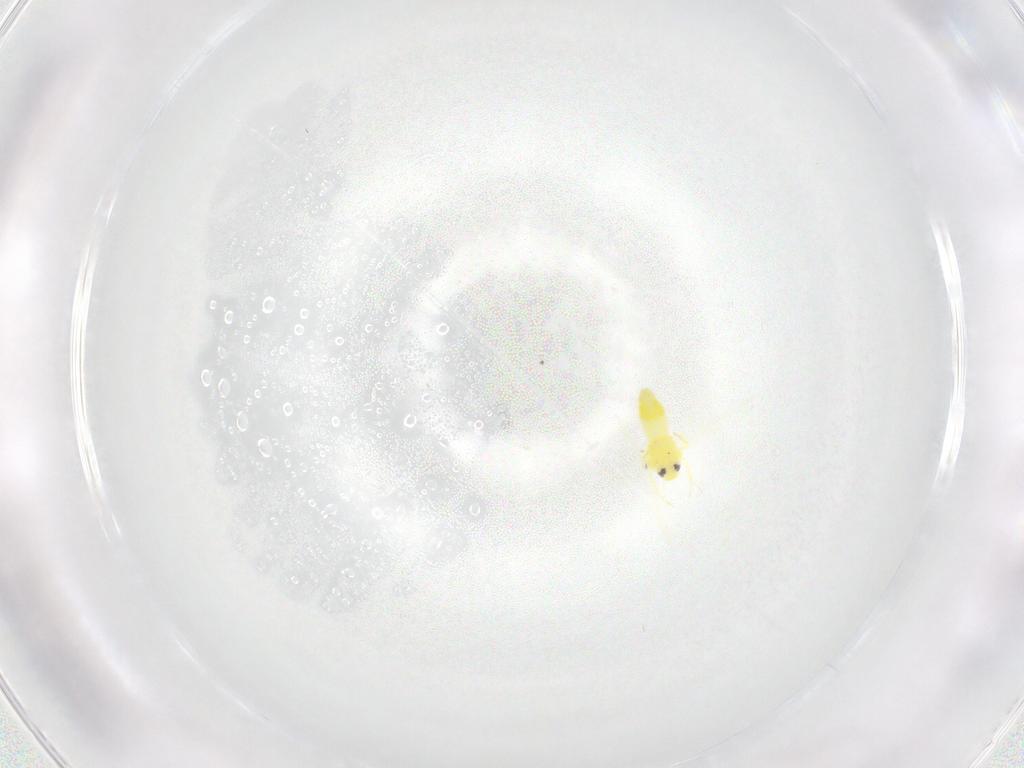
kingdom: Animalia
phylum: Arthropoda
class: Insecta
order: Hemiptera
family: Aleyrodidae
